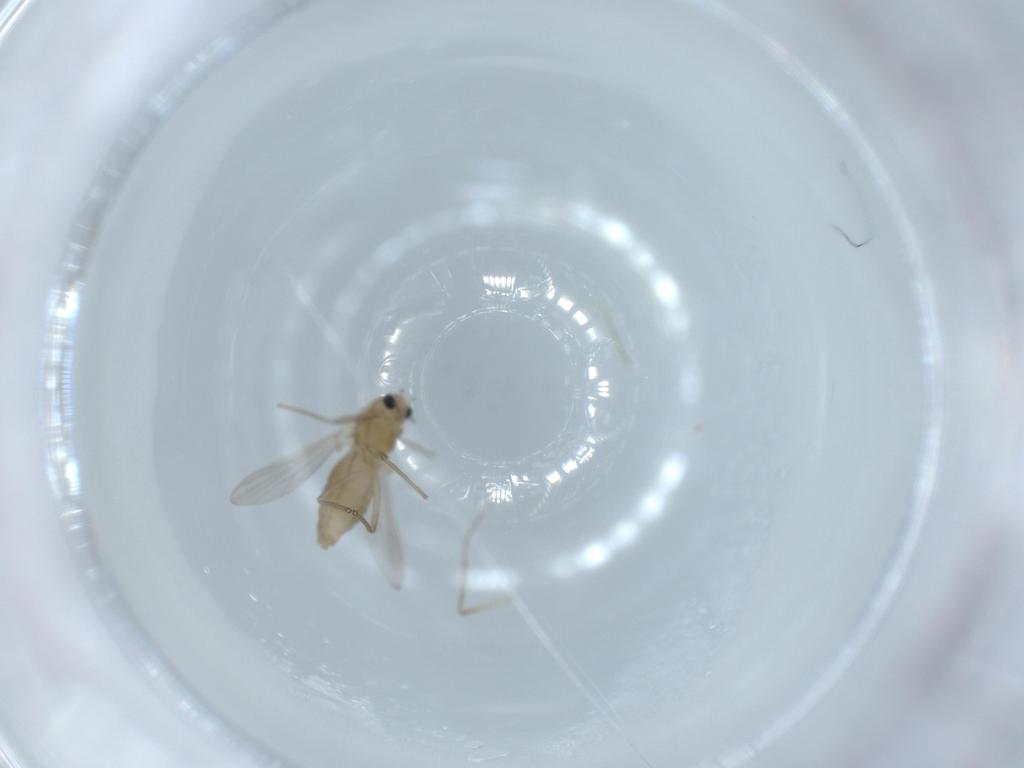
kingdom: Animalia
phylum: Arthropoda
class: Insecta
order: Diptera
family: Chironomidae
